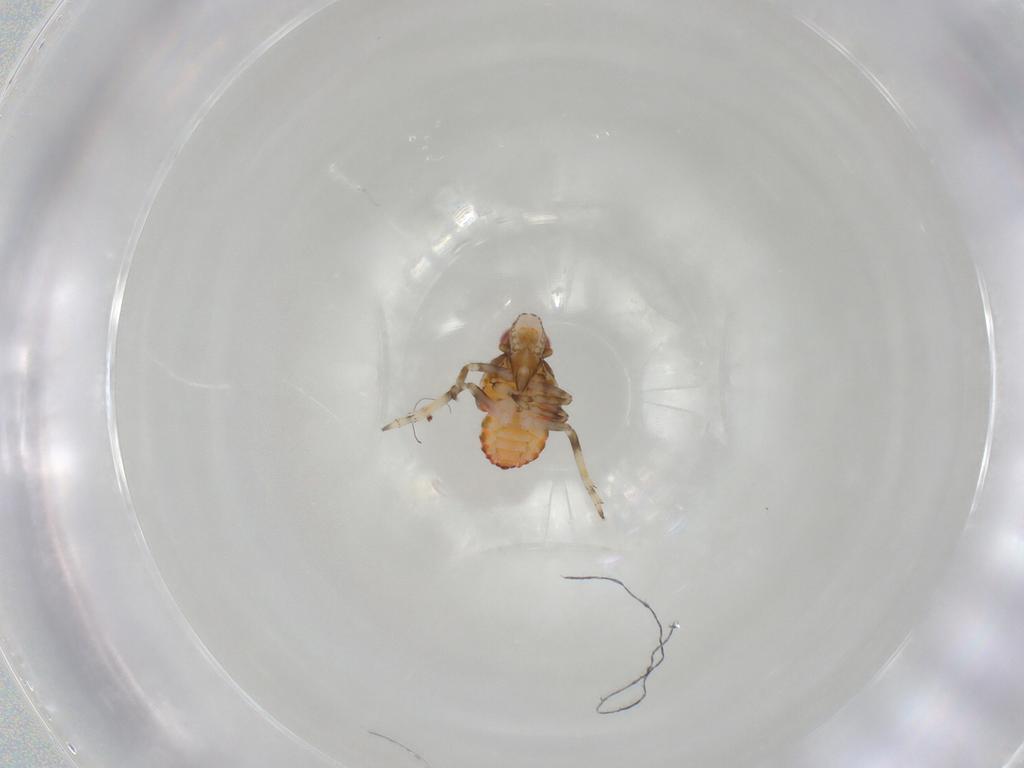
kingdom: Animalia
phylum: Arthropoda
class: Insecta
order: Hemiptera
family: Tropiduchidae
